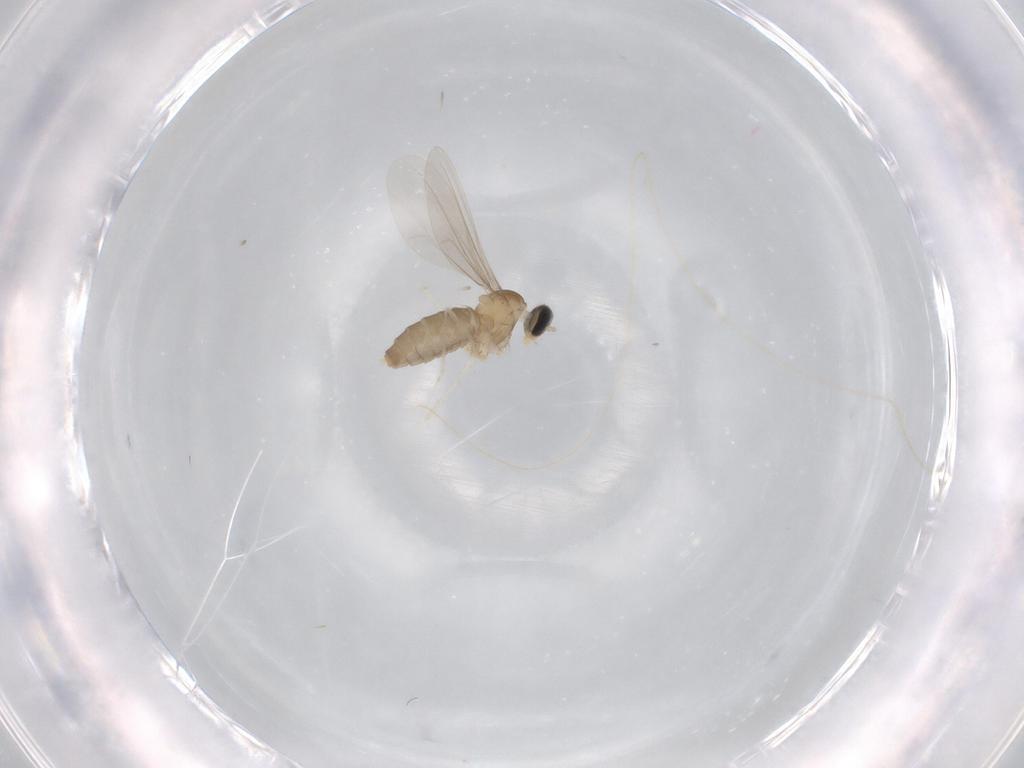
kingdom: Animalia
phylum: Arthropoda
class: Insecta
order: Diptera
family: Cecidomyiidae
